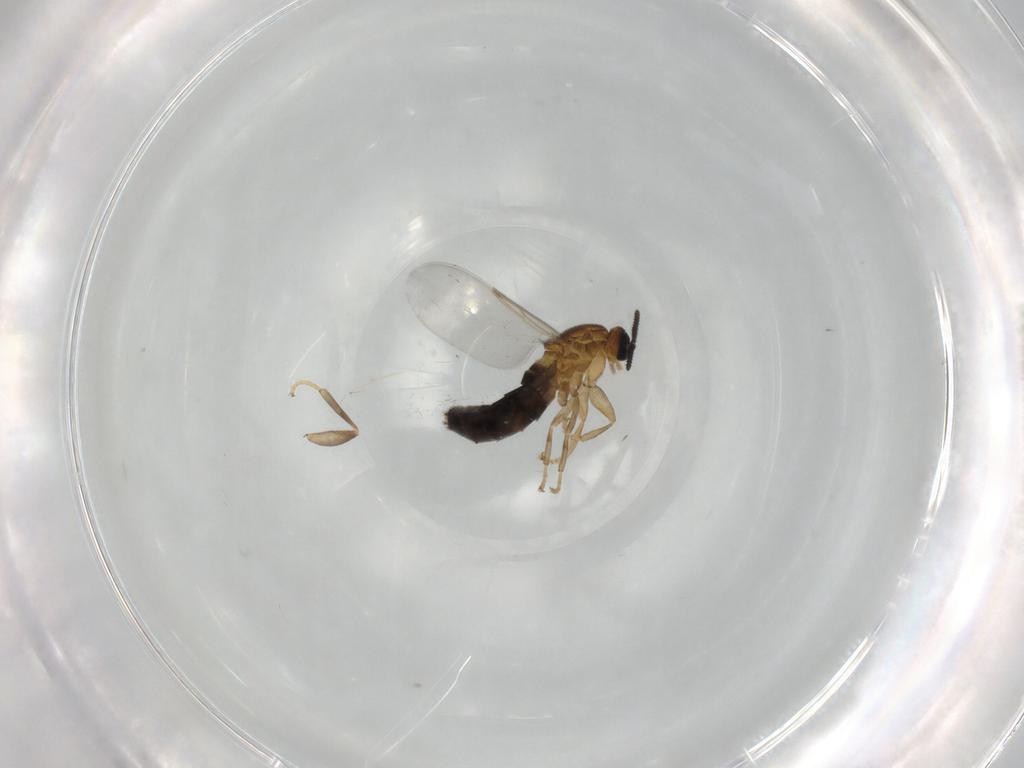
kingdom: Animalia
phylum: Arthropoda
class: Insecta
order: Diptera
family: Scatopsidae
